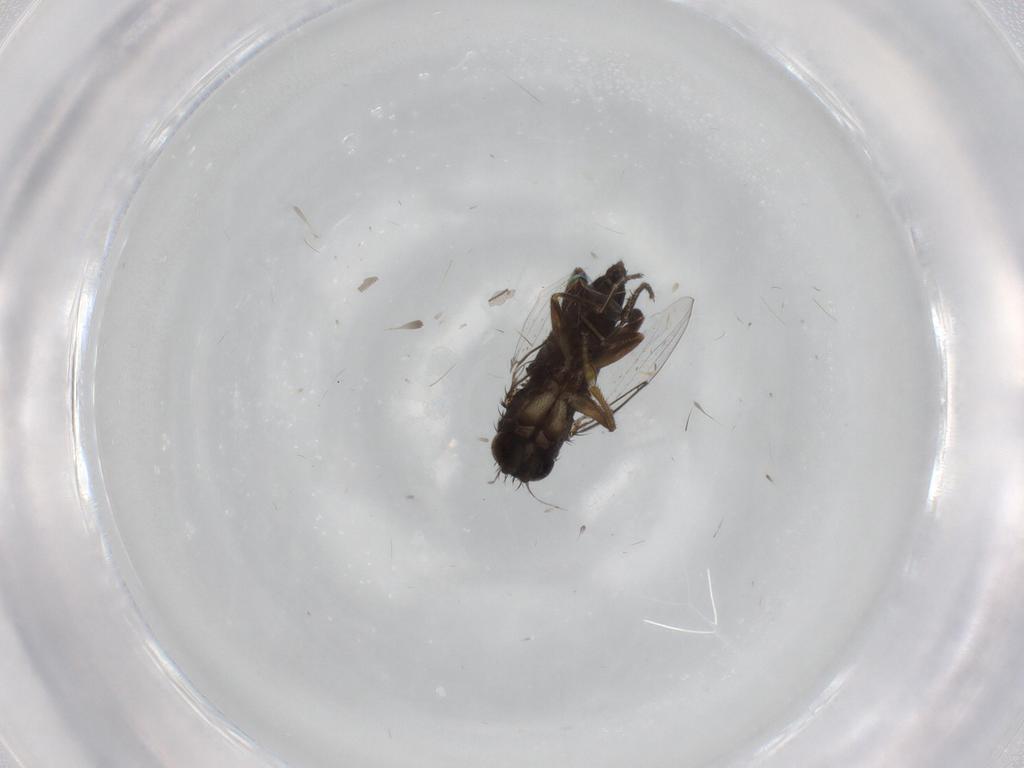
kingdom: Animalia
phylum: Arthropoda
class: Insecta
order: Diptera
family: Phoridae
